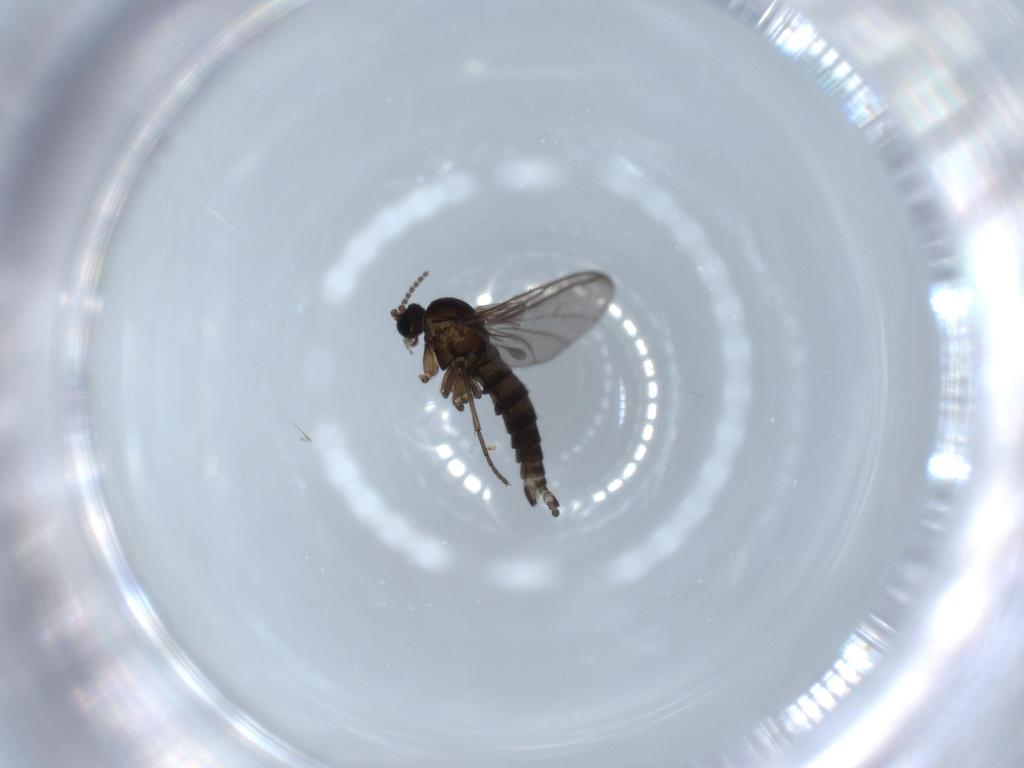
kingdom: Animalia
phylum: Arthropoda
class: Insecta
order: Diptera
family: Sciaridae
